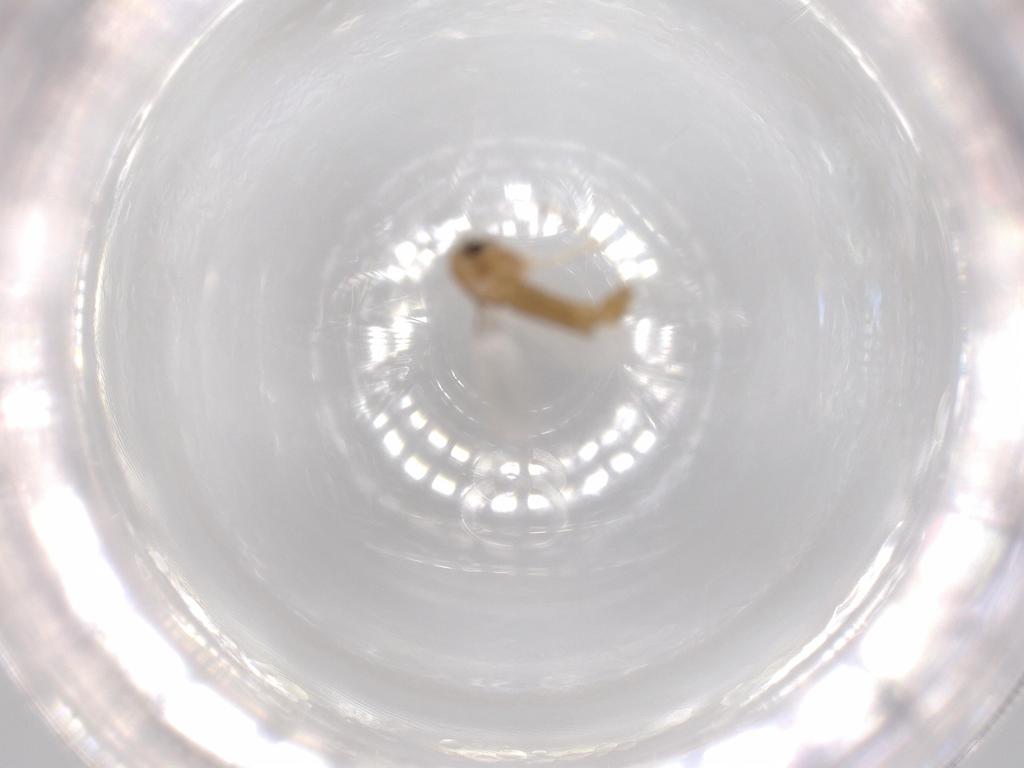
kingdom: Animalia
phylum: Arthropoda
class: Insecta
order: Diptera
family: Chironomidae
